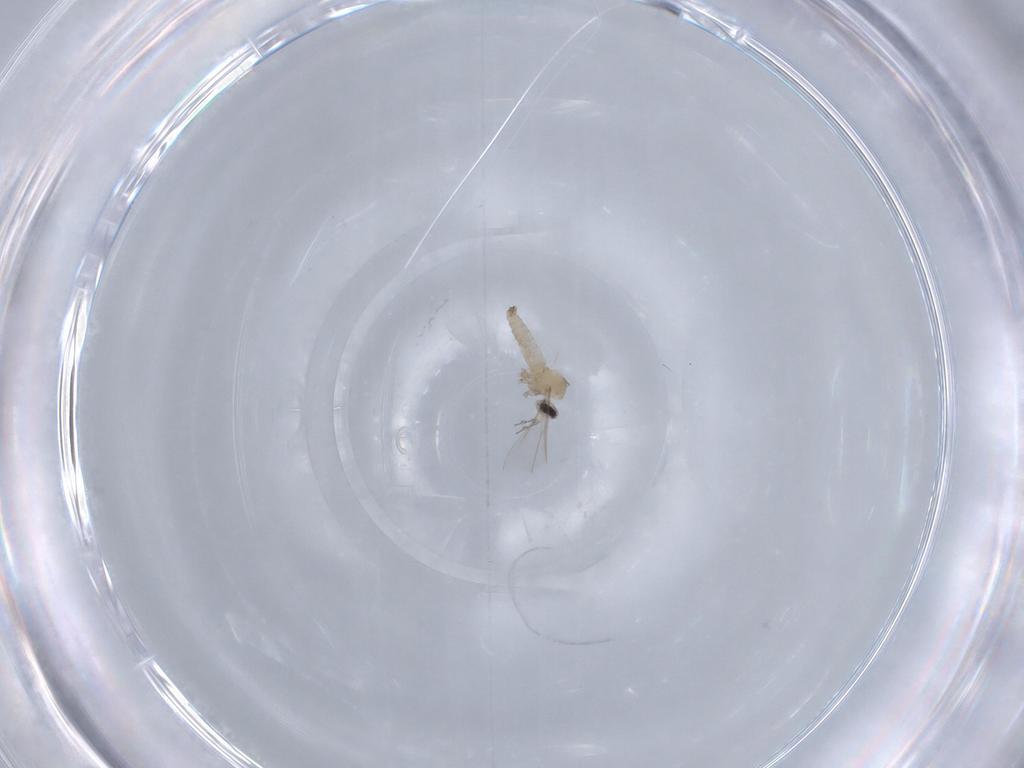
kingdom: Animalia
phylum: Arthropoda
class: Insecta
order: Diptera
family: Cecidomyiidae
